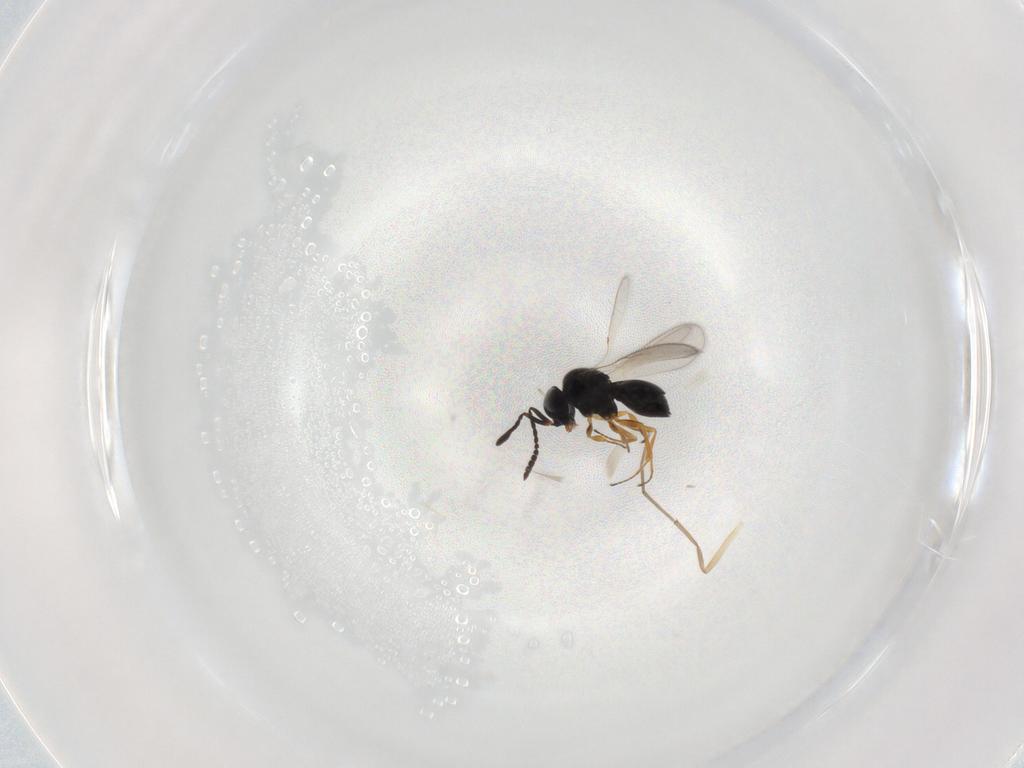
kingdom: Animalia
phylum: Arthropoda
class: Insecta
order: Hymenoptera
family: Scelionidae
